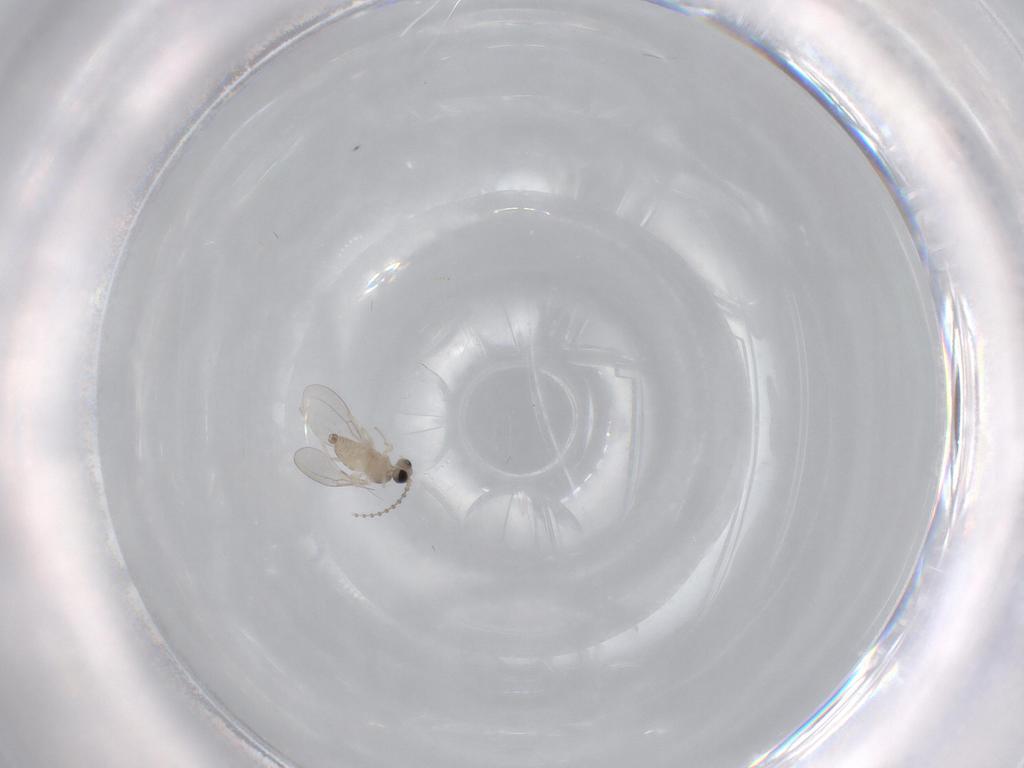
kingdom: Animalia
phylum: Arthropoda
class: Insecta
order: Diptera
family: Cecidomyiidae
